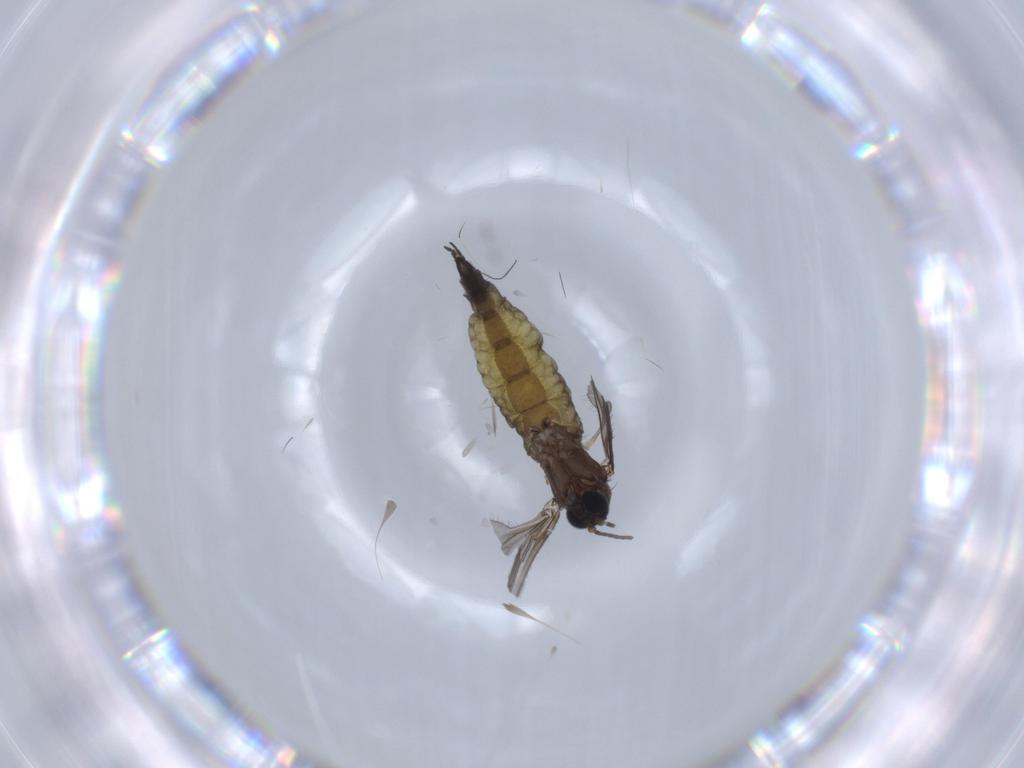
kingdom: Animalia
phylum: Arthropoda
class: Insecta
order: Diptera
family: Sciaridae
